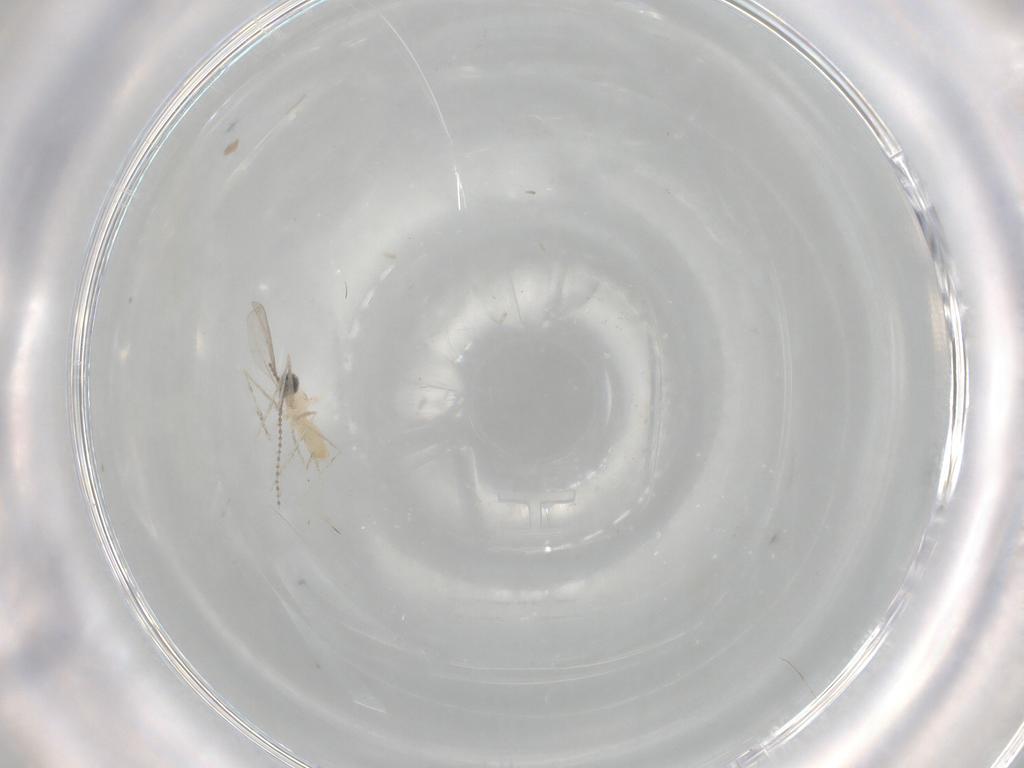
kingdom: Animalia
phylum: Arthropoda
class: Insecta
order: Diptera
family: Cecidomyiidae
